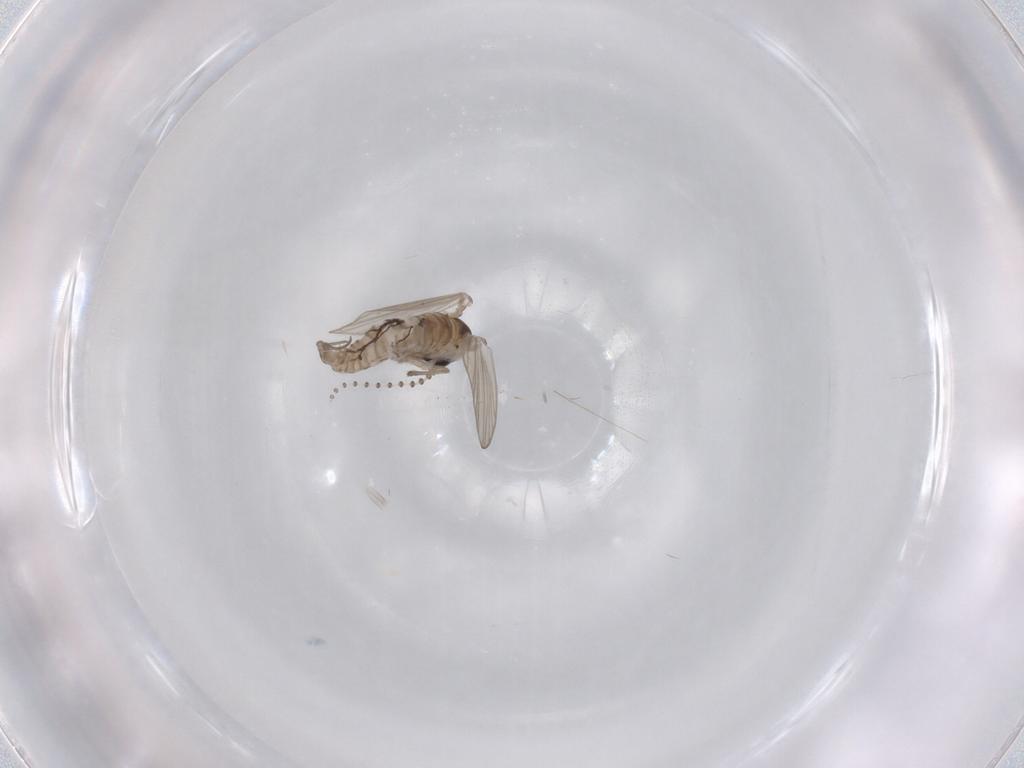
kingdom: Animalia
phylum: Arthropoda
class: Insecta
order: Diptera
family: Psychodidae
